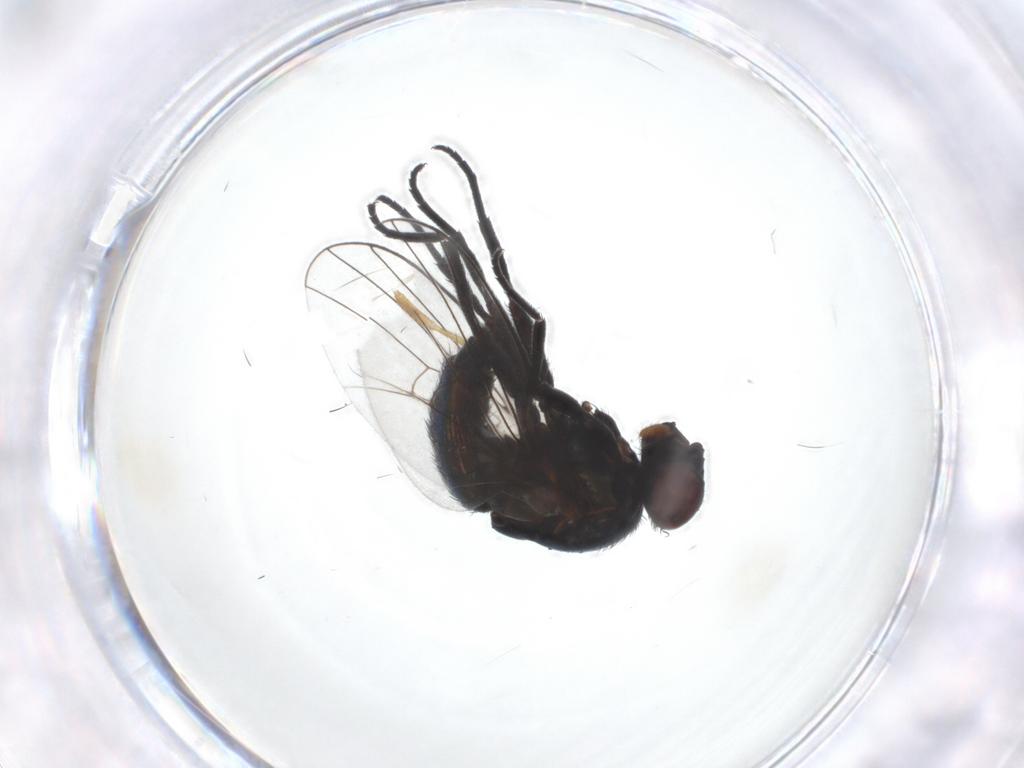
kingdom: Animalia
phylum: Arthropoda
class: Insecta
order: Diptera
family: Heleomyzidae
